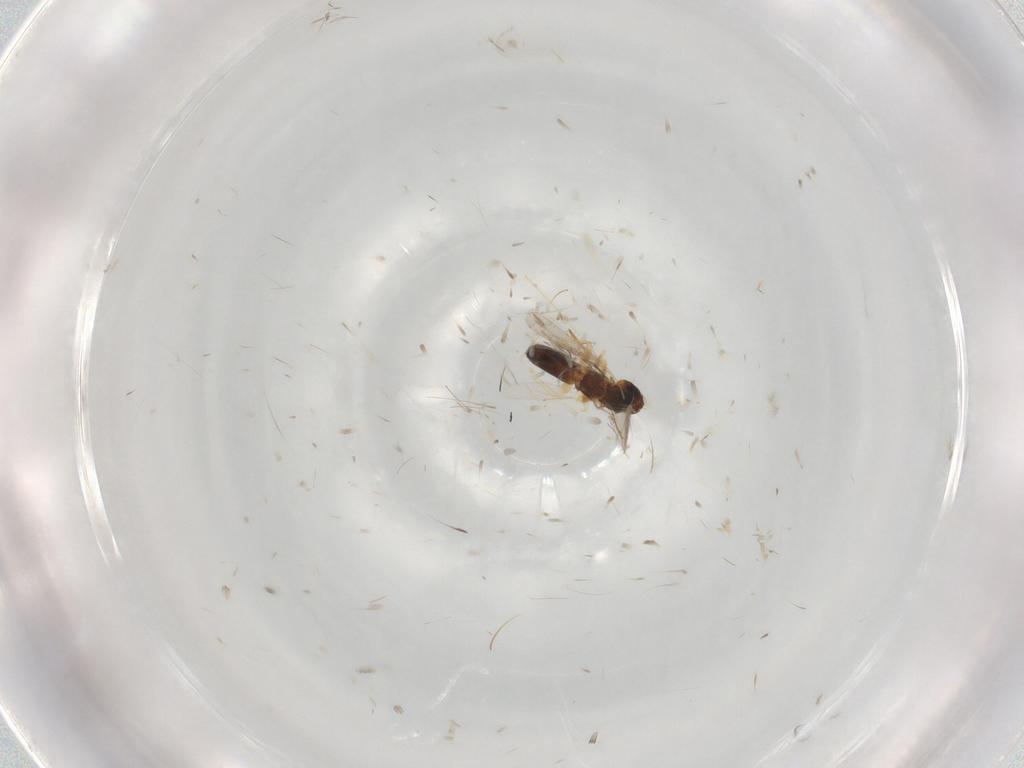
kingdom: Animalia
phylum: Arthropoda
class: Insecta
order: Hymenoptera
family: Eulophidae
